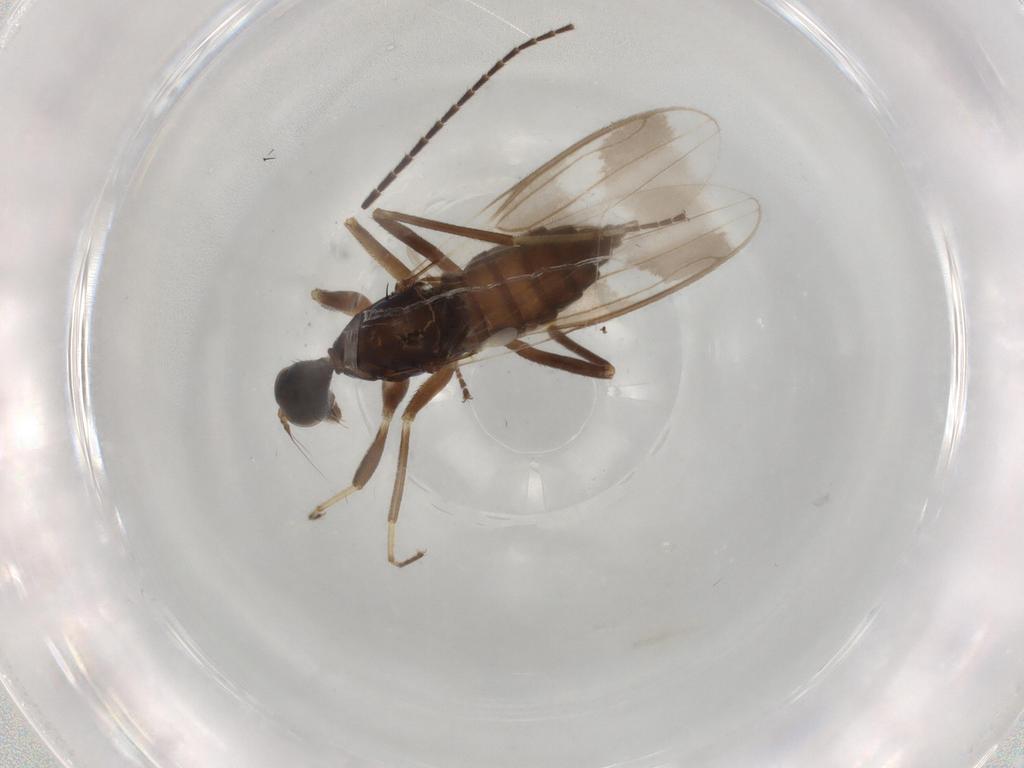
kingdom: Animalia
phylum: Arthropoda
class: Insecta
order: Diptera
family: Hybotidae
